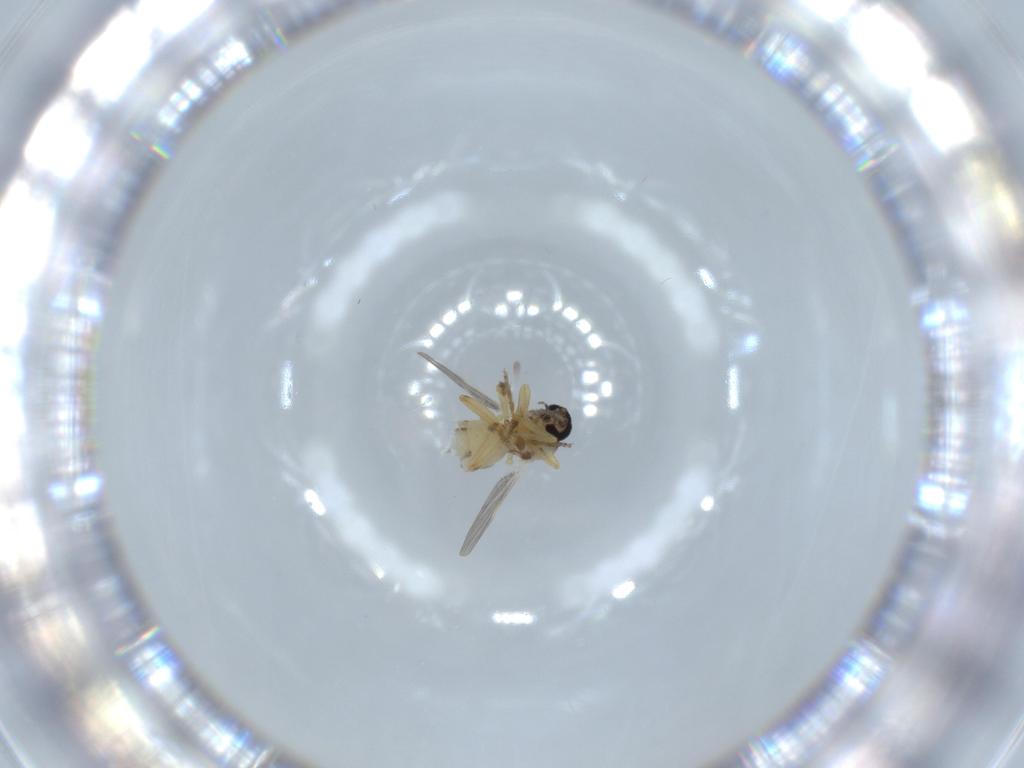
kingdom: Animalia
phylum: Arthropoda
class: Insecta
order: Diptera
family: Ceratopogonidae
